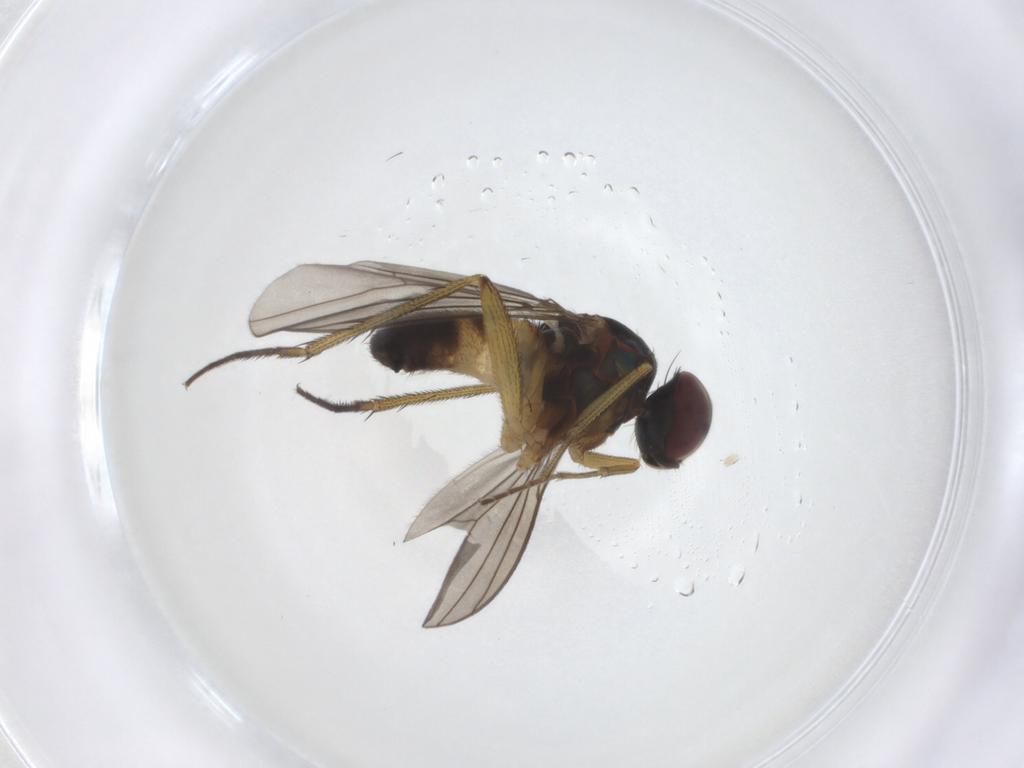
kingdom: Animalia
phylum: Arthropoda
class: Insecta
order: Diptera
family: Dolichopodidae
